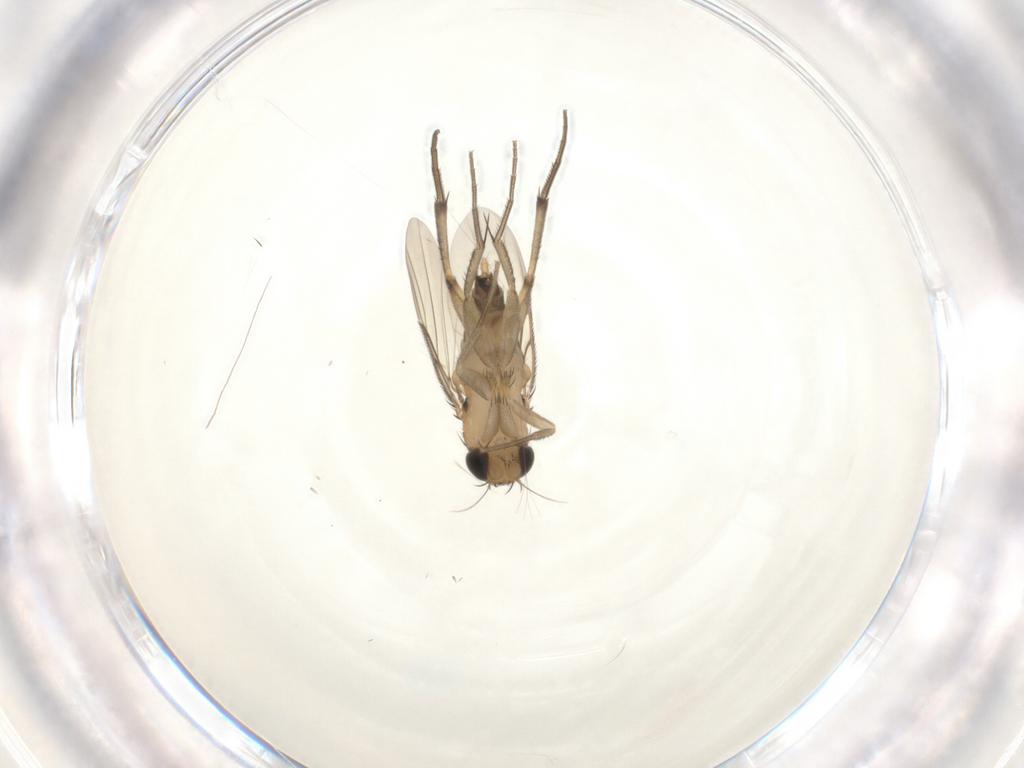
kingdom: Animalia
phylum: Arthropoda
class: Insecta
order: Diptera
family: Phoridae
